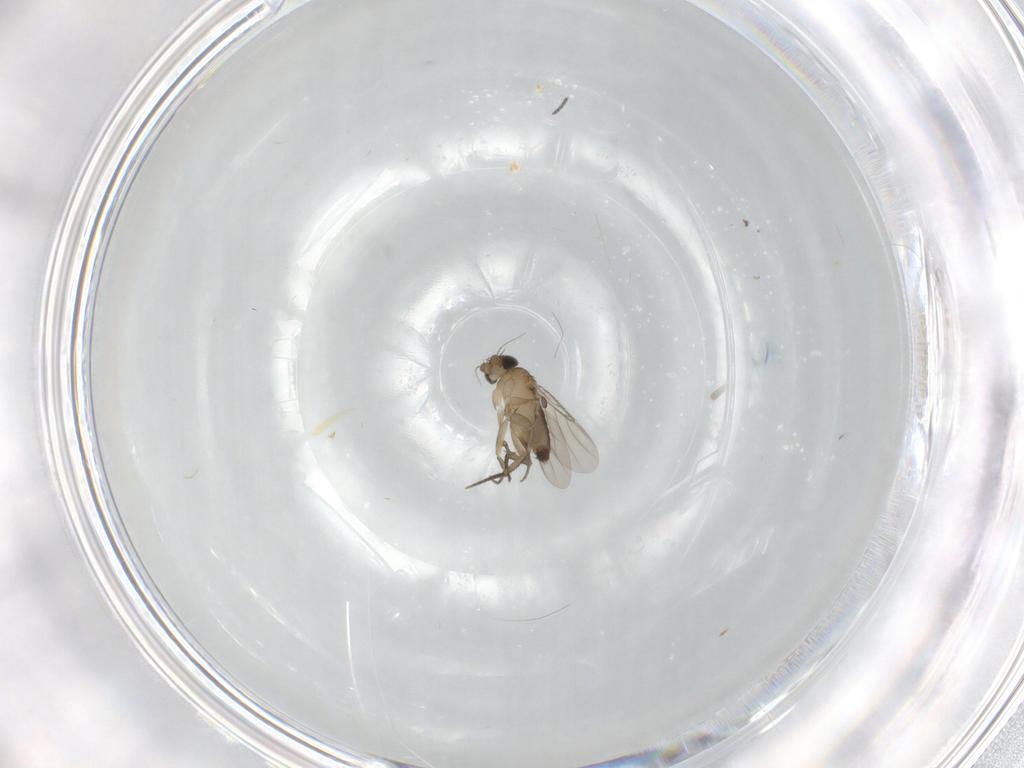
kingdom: Animalia
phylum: Arthropoda
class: Insecta
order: Diptera
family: Phoridae
